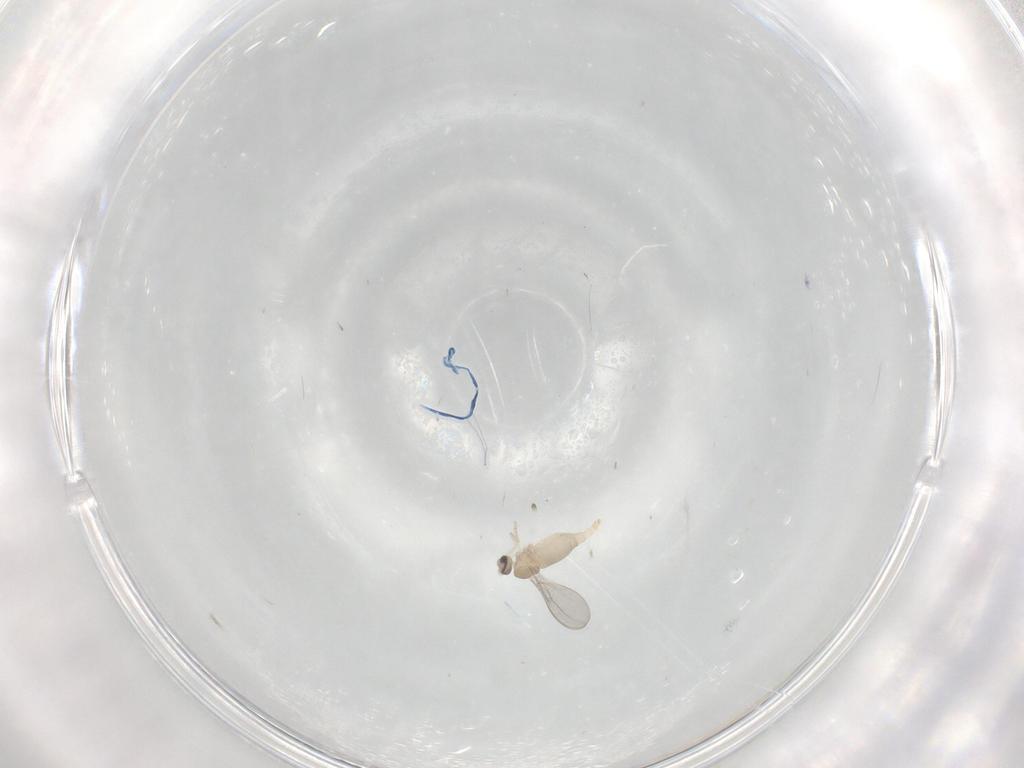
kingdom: Animalia
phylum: Arthropoda
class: Insecta
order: Diptera
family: Cecidomyiidae
